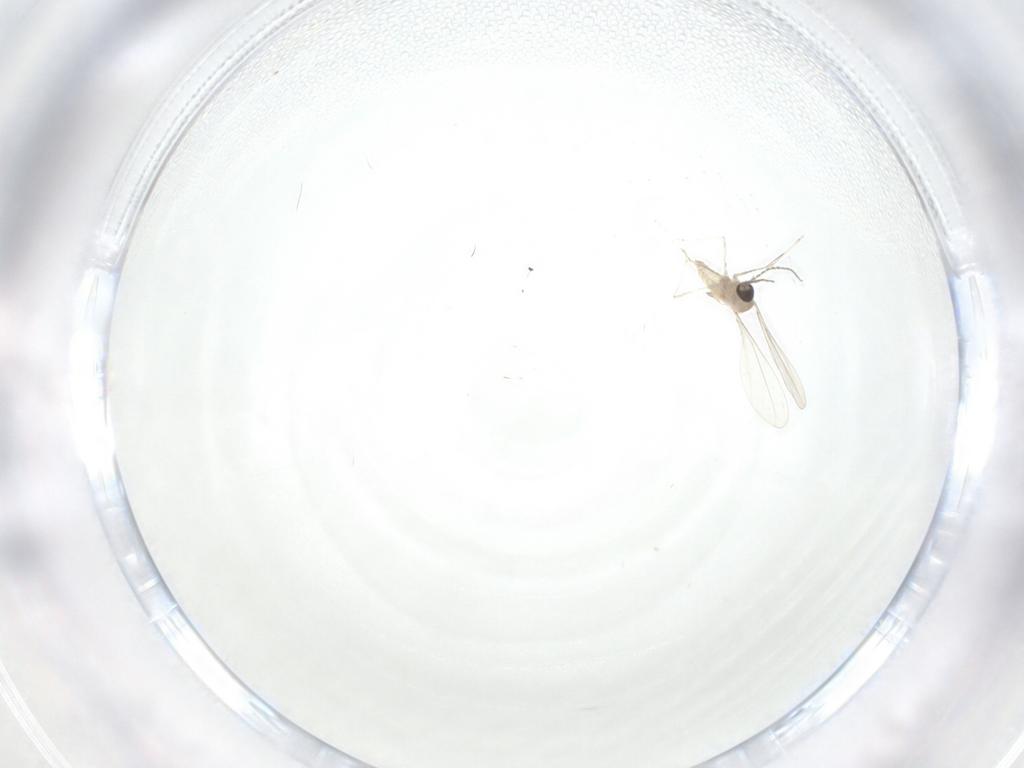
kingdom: Animalia
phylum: Arthropoda
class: Insecta
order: Diptera
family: Cecidomyiidae
